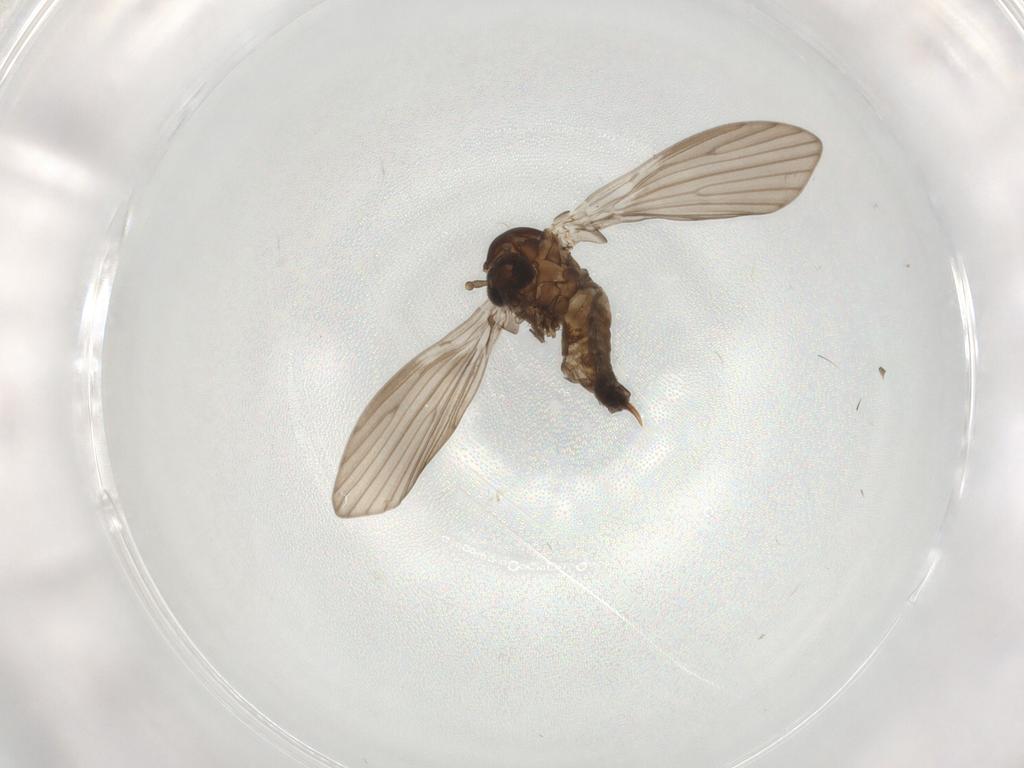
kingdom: Animalia
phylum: Arthropoda
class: Insecta
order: Diptera
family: Psychodidae
